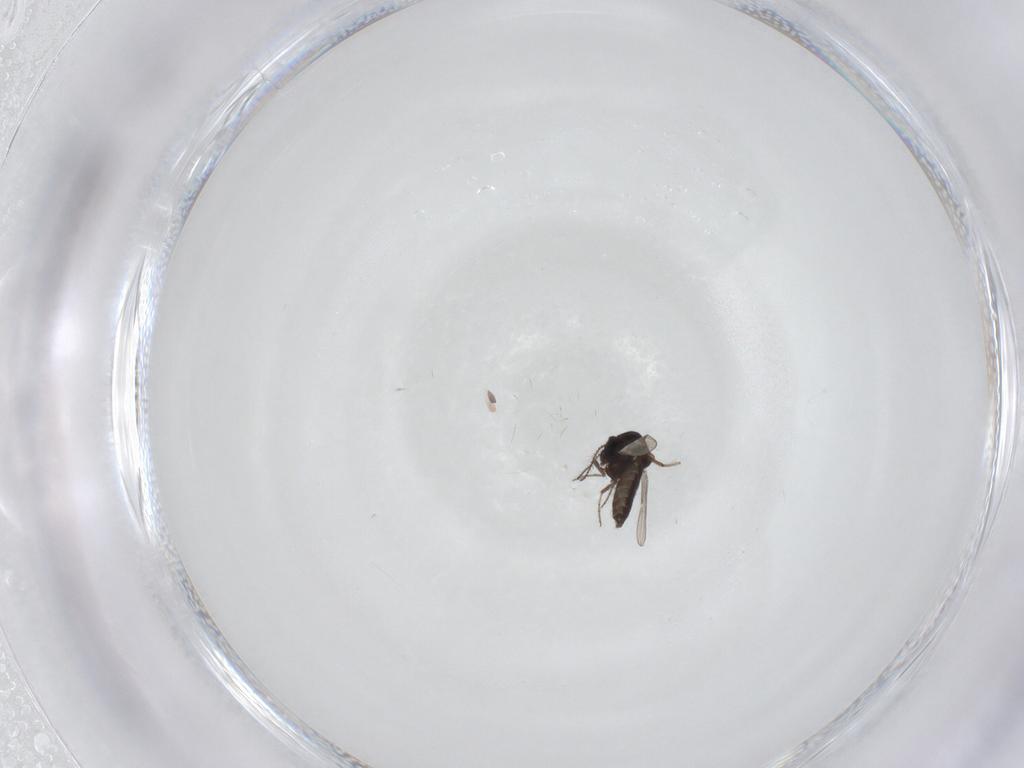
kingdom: Animalia
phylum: Arthropoda
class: Insecta
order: Diptera
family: Ceratopogonidae
